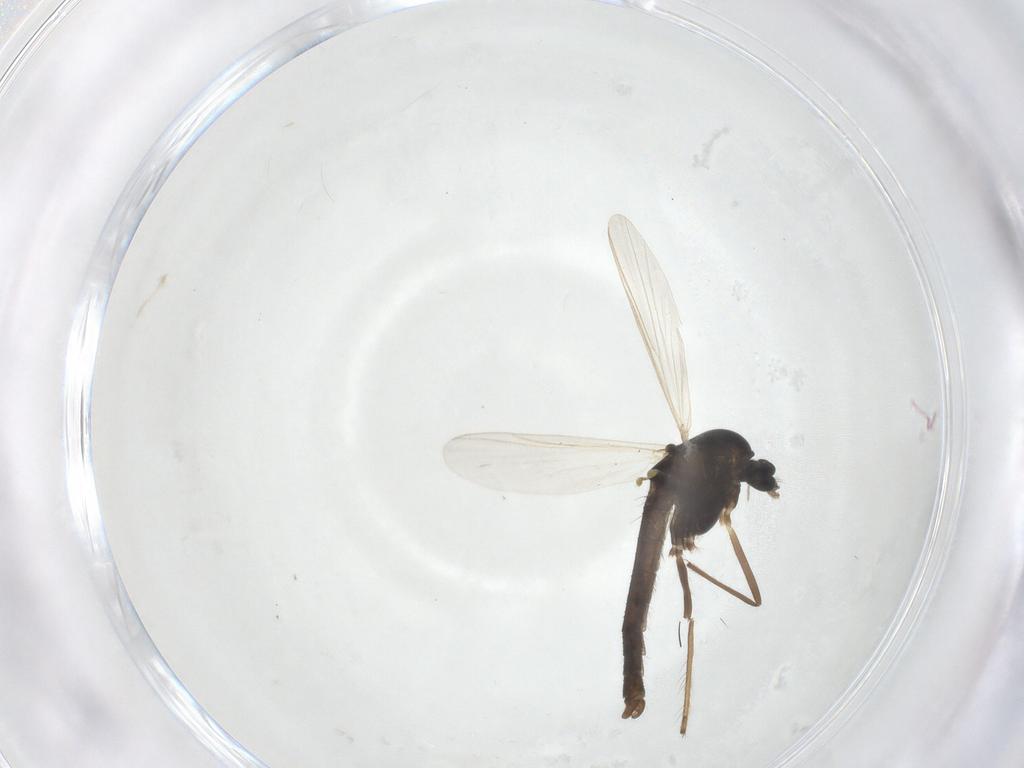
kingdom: Animalia
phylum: Arthropoda
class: Insecta
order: Diptera
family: Chironomidae
